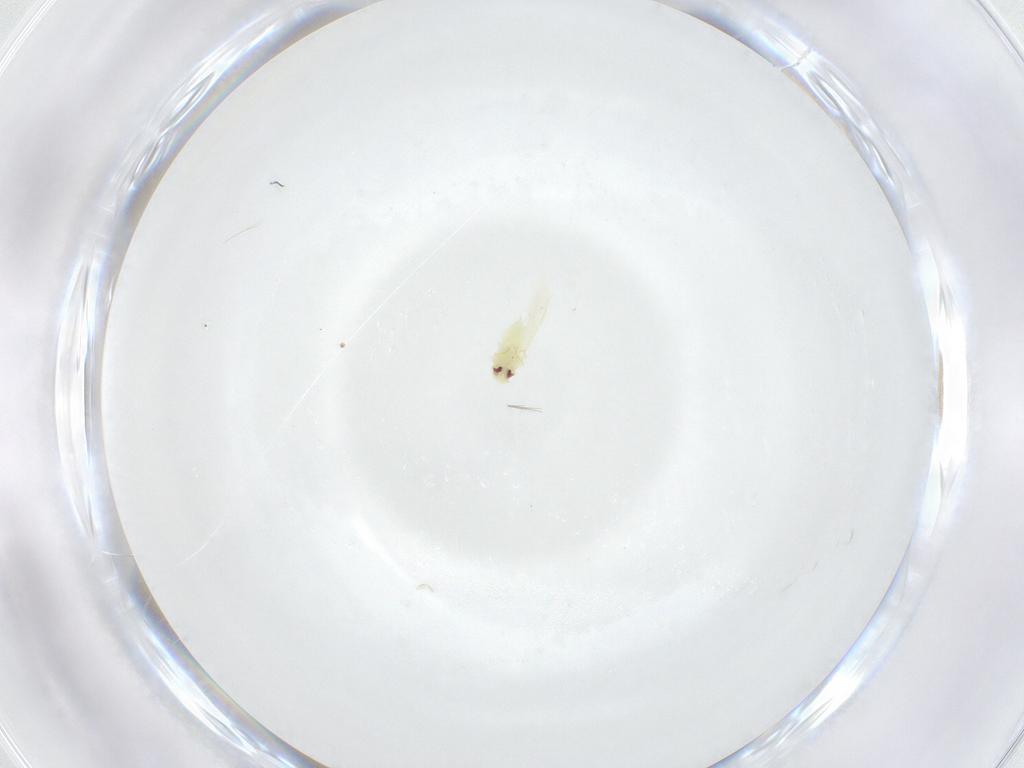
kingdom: Animalia
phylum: Arthropoda
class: Insecta
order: Hemiptera
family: Aleyrodidae
